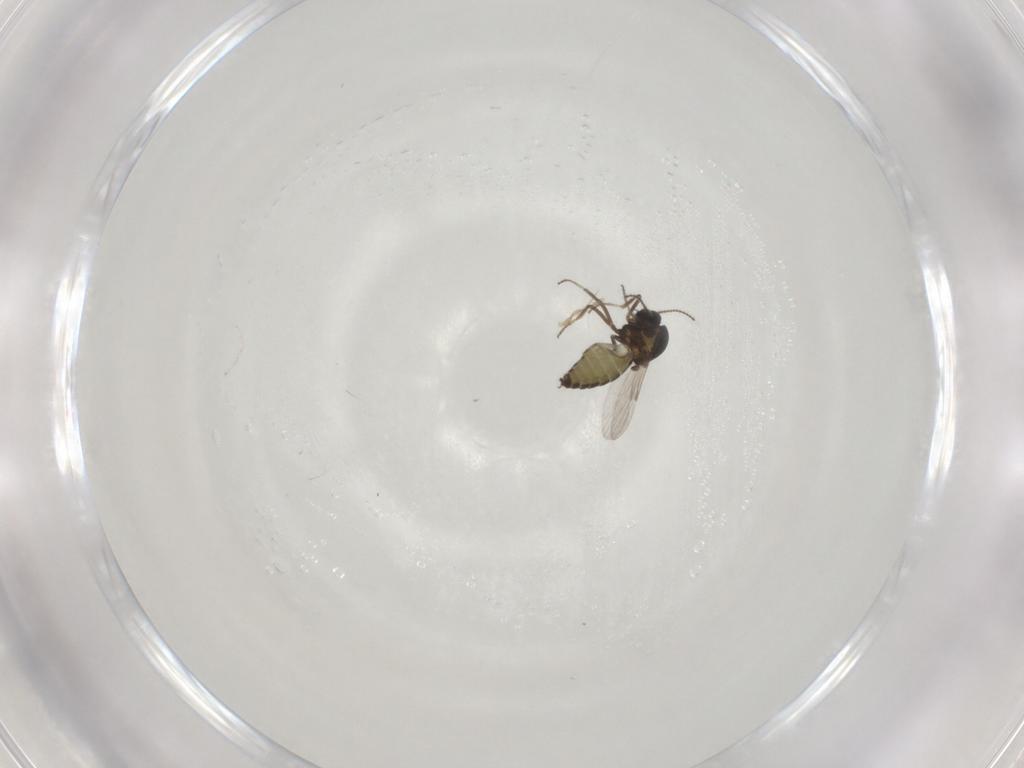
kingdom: Animalia
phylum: Arthropoda
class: Insecta
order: Diptera
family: Ceratopogonidae
